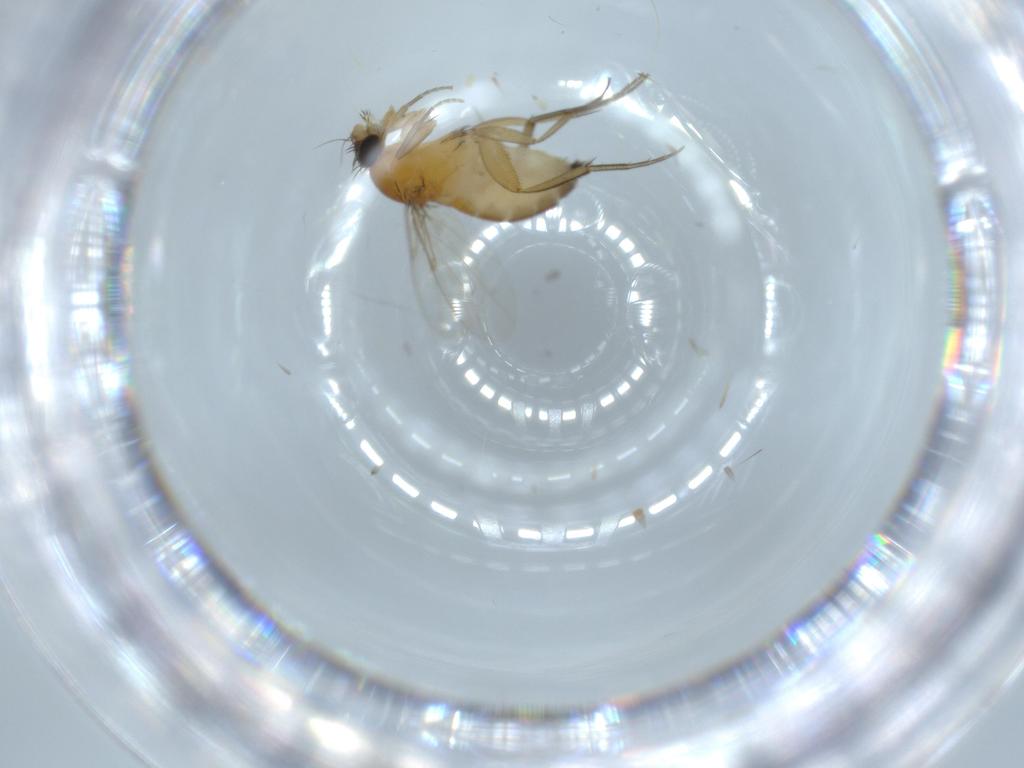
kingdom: Animalia
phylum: Arthropoda
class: Insecta
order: Diptera
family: Phoridae
